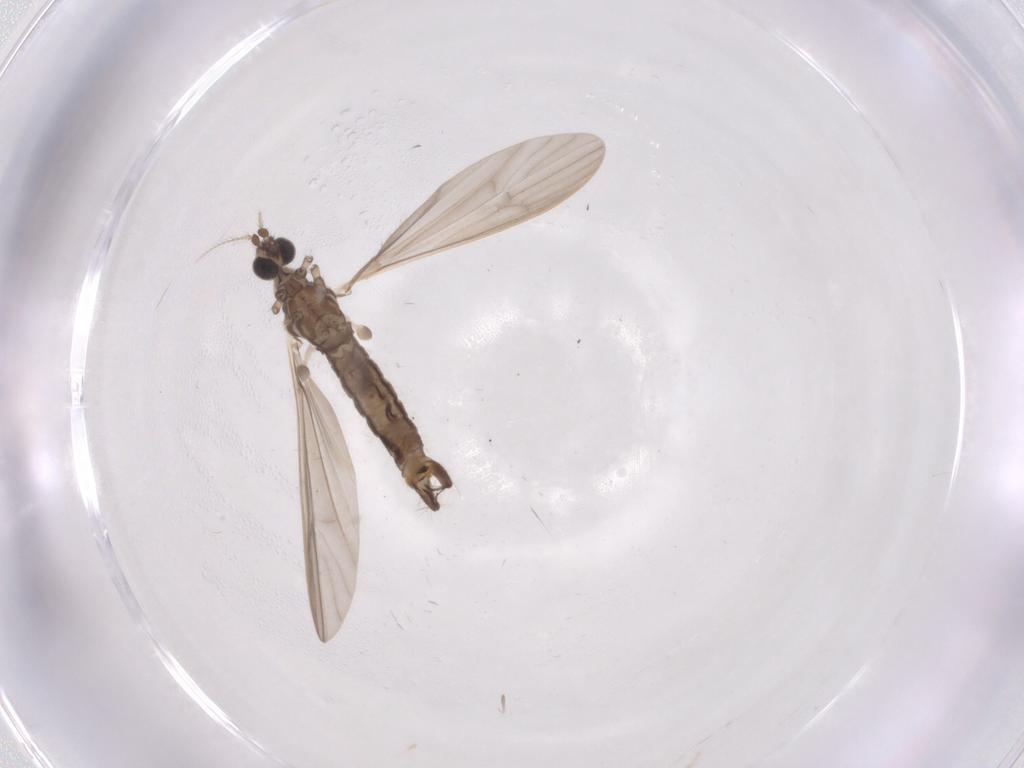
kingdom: Animalia
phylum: Arthropoda
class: Insecta
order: Diptera
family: Limoniidae
